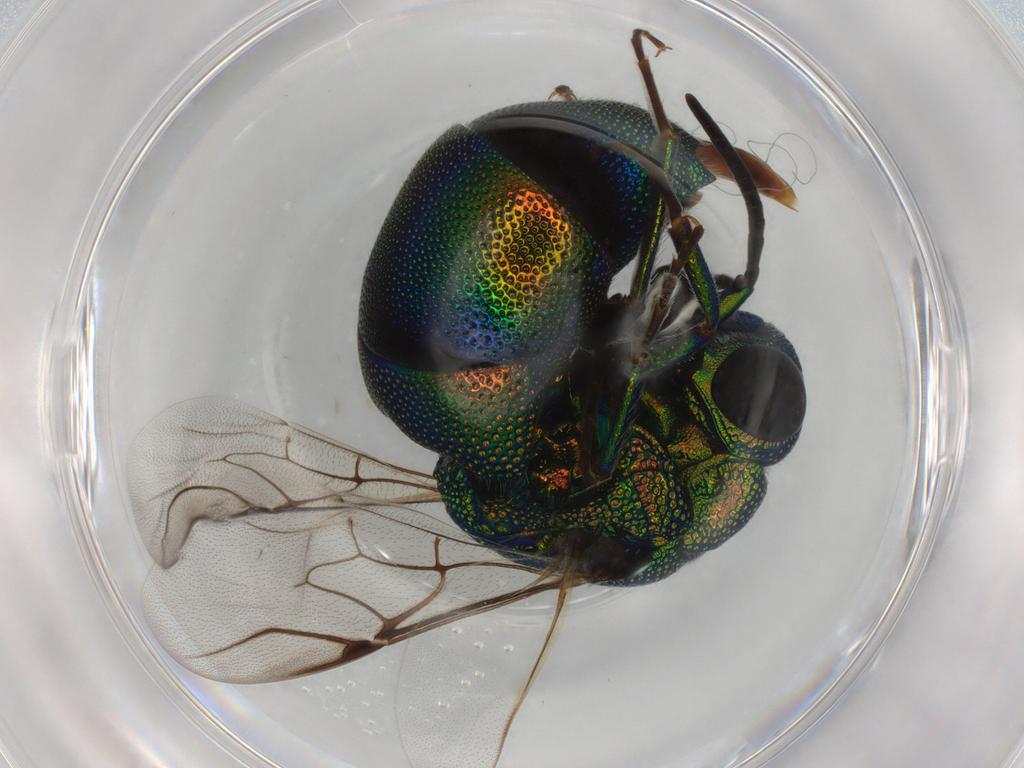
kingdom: Animalia
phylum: Arthropoda
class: Insecta
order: Hymenoptera
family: Chrysididae
